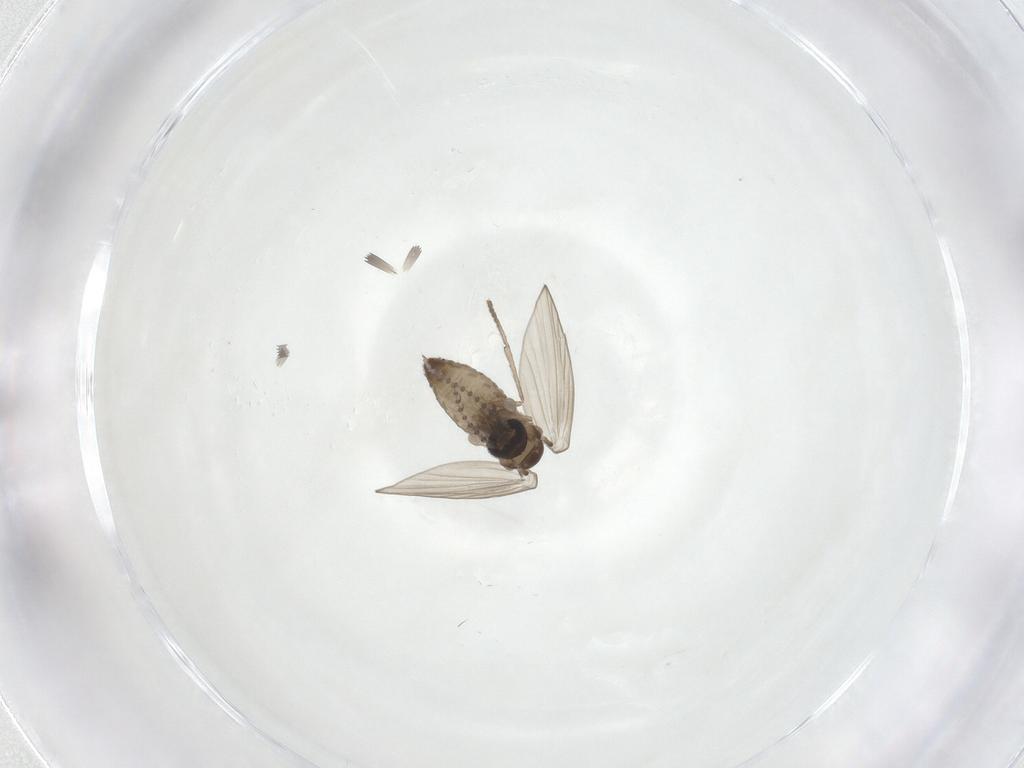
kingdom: Animalia
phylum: Arthropoda
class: Insecta
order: Diptera
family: Psychodidae
